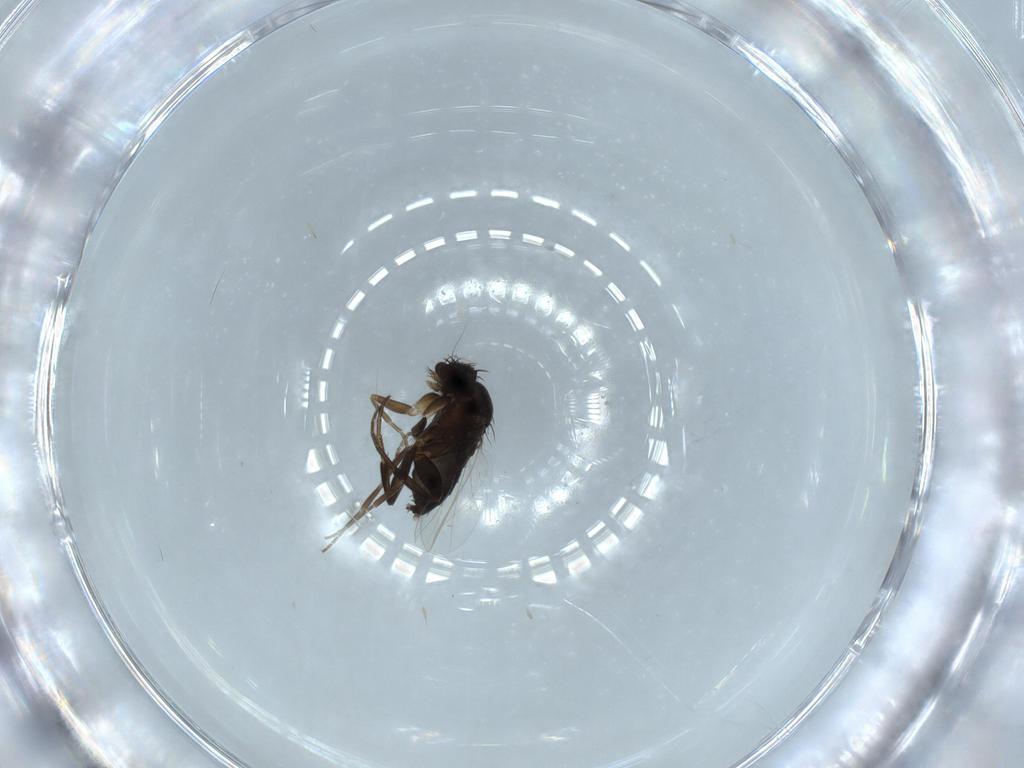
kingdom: Animalia
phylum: Arthropoda
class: Insecta
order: Diptera
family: Phoridae
